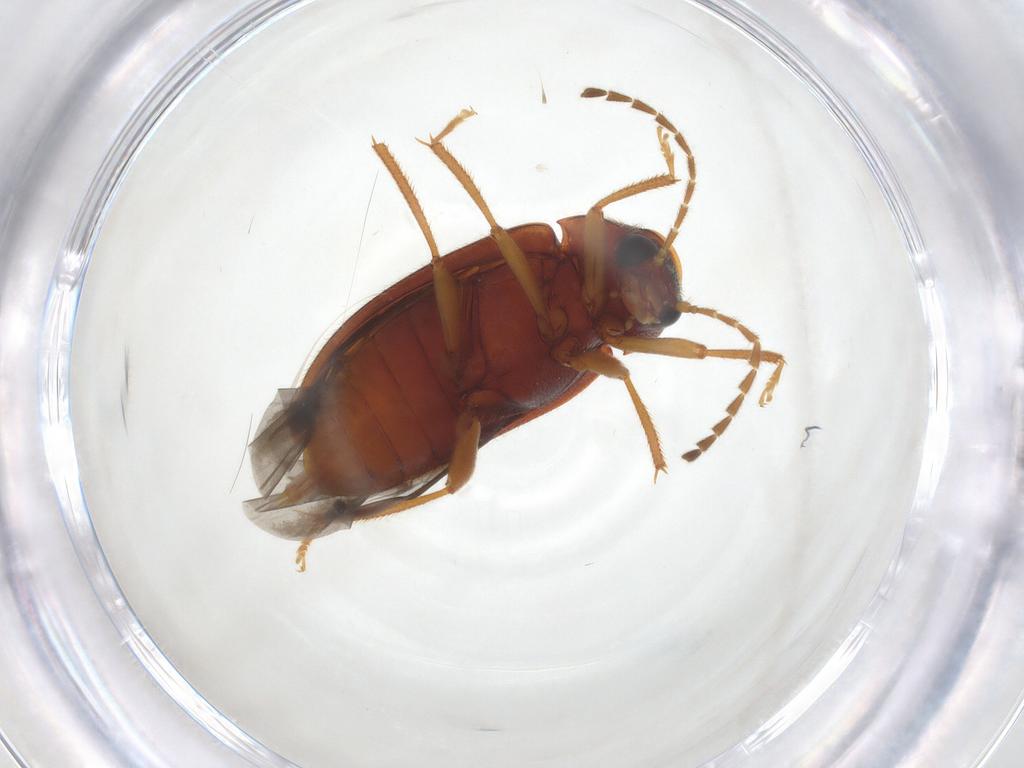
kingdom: Animalia
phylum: Arthropoda
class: Insecta
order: Coleoptera
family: Ptilodactylidae
